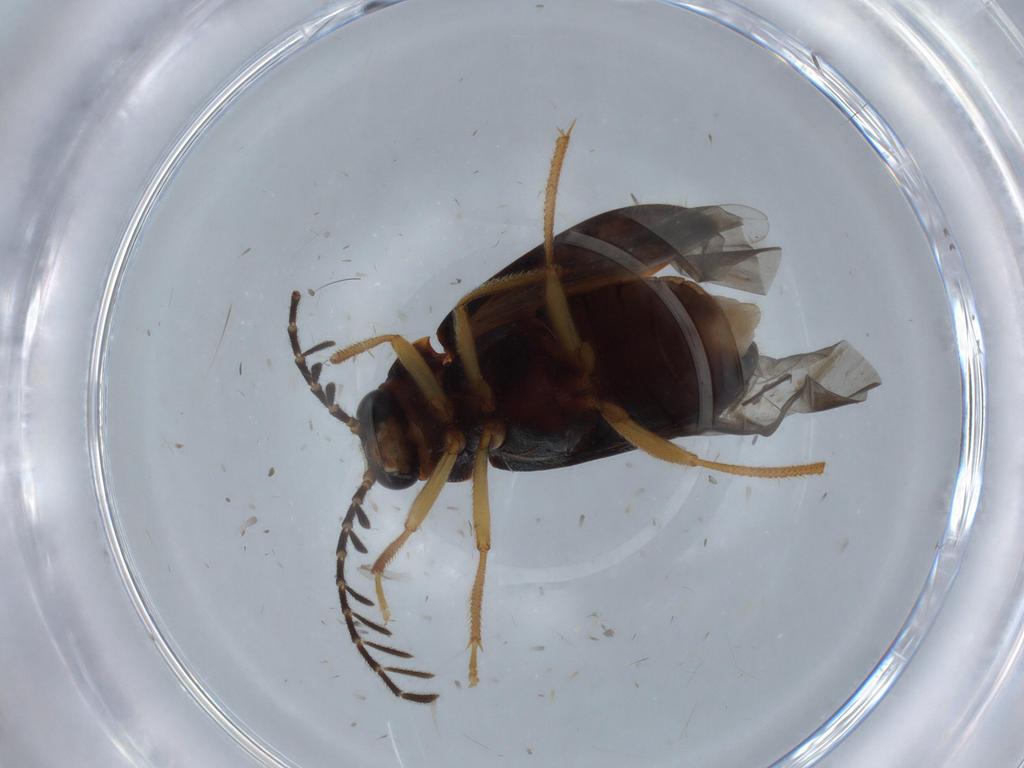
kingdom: Animalia
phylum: Arthropoda
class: Insecta
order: Coleoptera
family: Ptilodactylidae
